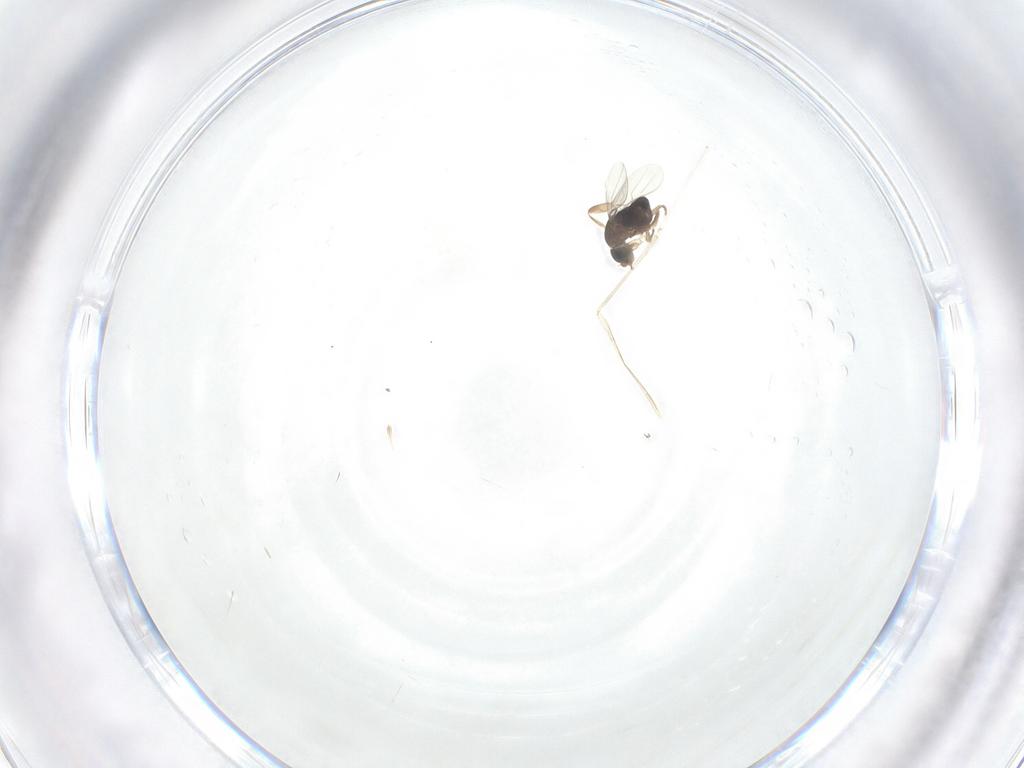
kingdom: Animalia
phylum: Arthropoda
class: Insecta
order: Diptera
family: Phoridae
